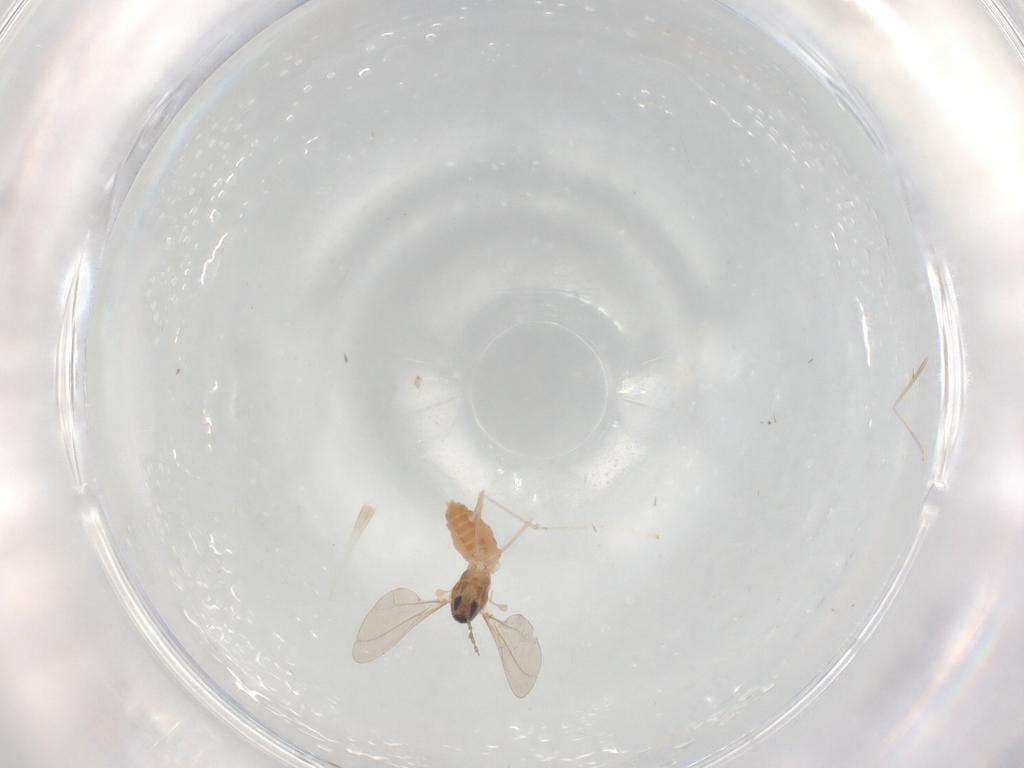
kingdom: Animalia
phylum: Arthropoda
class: Insecta
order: Diptera
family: Cecidomyiidae
